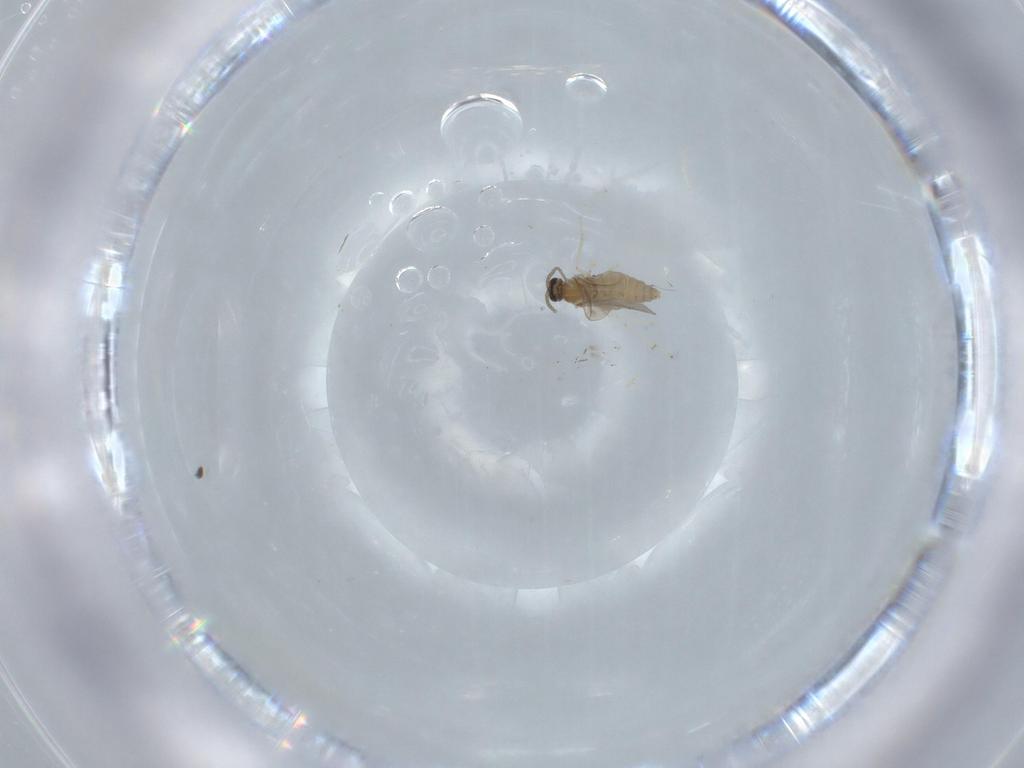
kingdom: Animalia
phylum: Arthropoda
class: Insecta
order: Diptera
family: Cecidomyiidae
